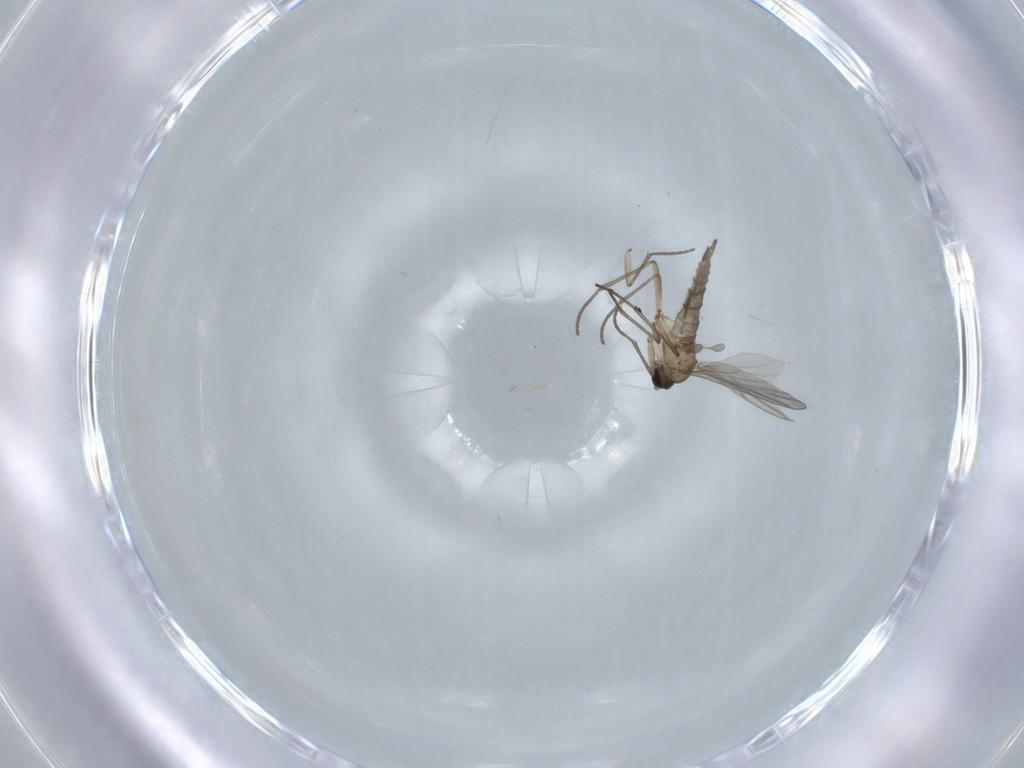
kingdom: Animalia
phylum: Arthropoda
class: Insecta
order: Diptera
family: Sciaridae
